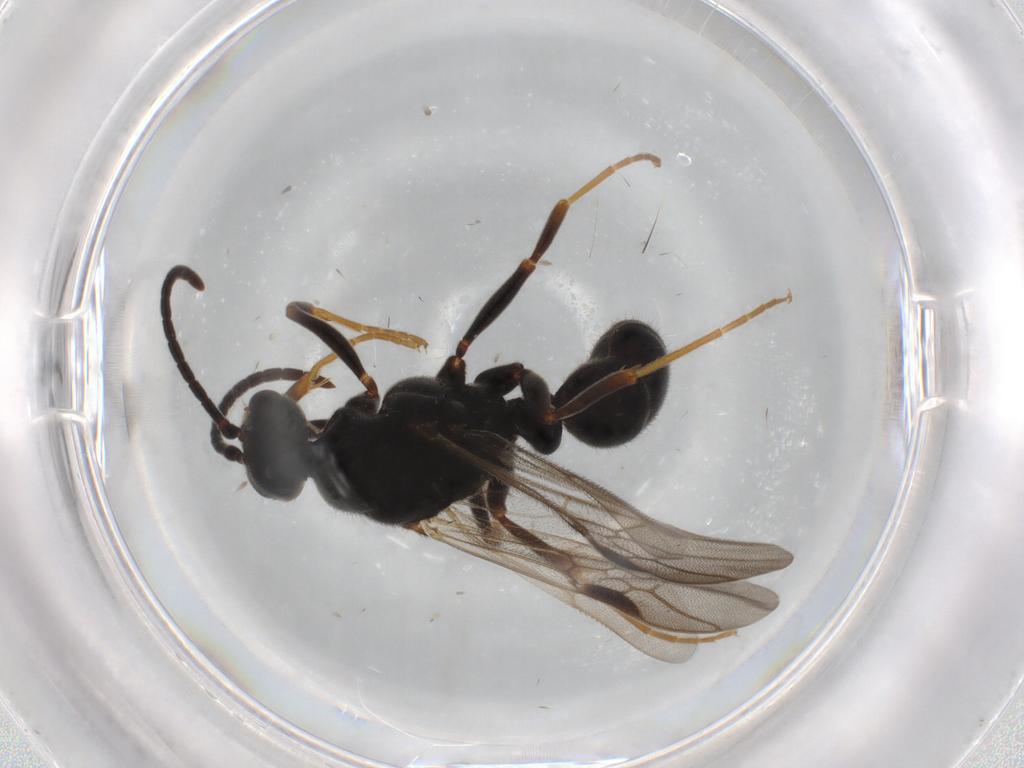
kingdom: Animalia
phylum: Arthropoda
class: Insecta
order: Hymenoptera
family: Formicidae
